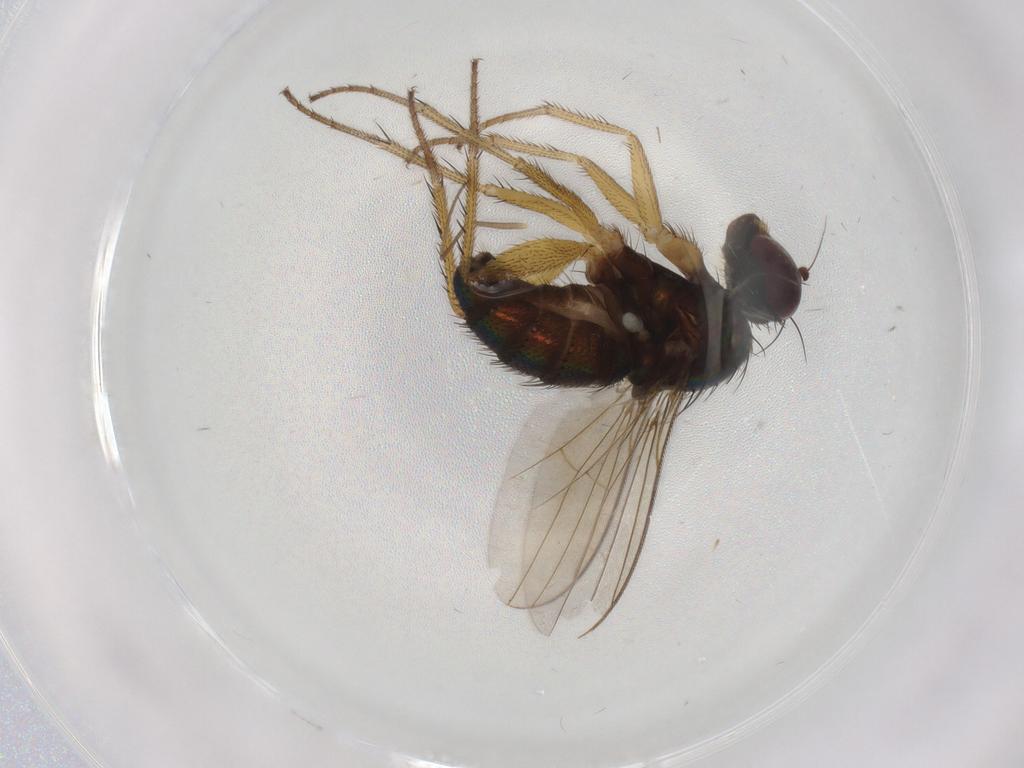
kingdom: Animalia
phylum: Arthropoda
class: Insecta
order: Diptera
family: Dolichopodidae
